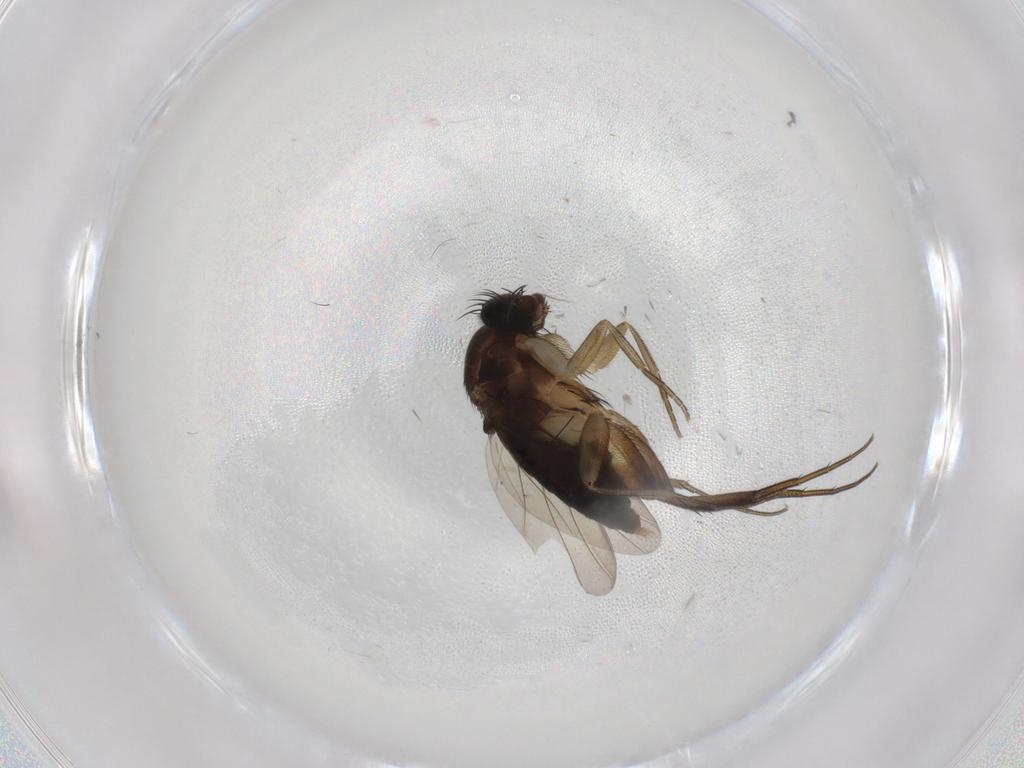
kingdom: Animalia
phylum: Arthropoda
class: Insecta
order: Diptera
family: Phoridae
